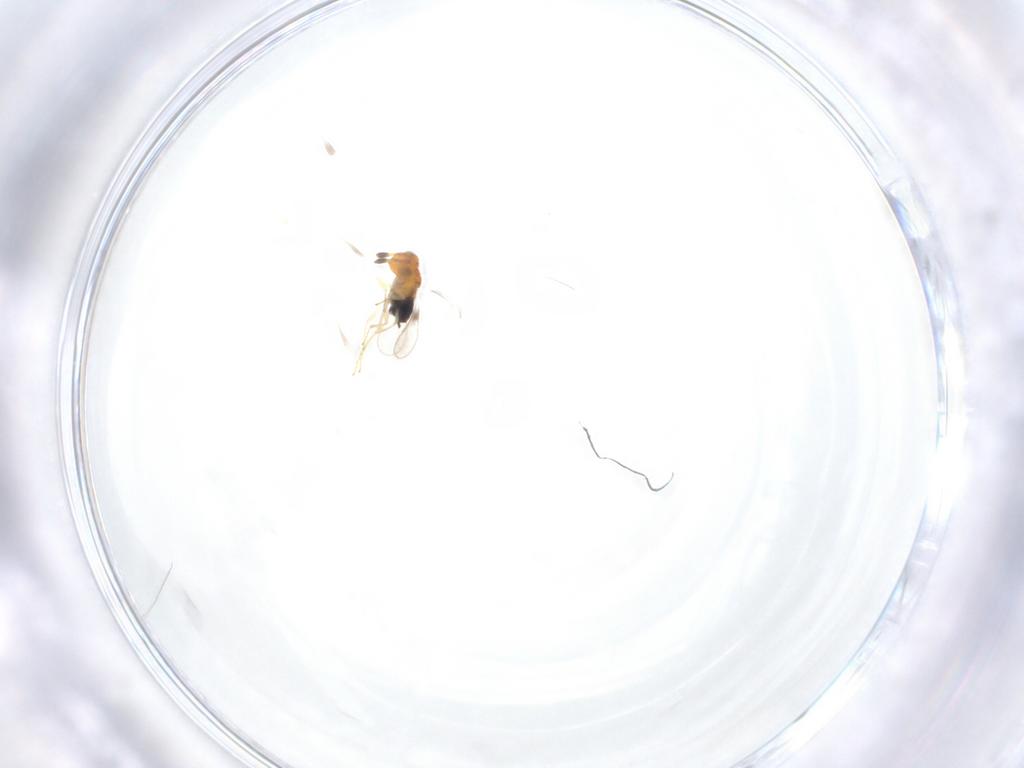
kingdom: Animalia
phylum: Arthropoda
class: Insecta
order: Hymenoptera
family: Aphelinidae
